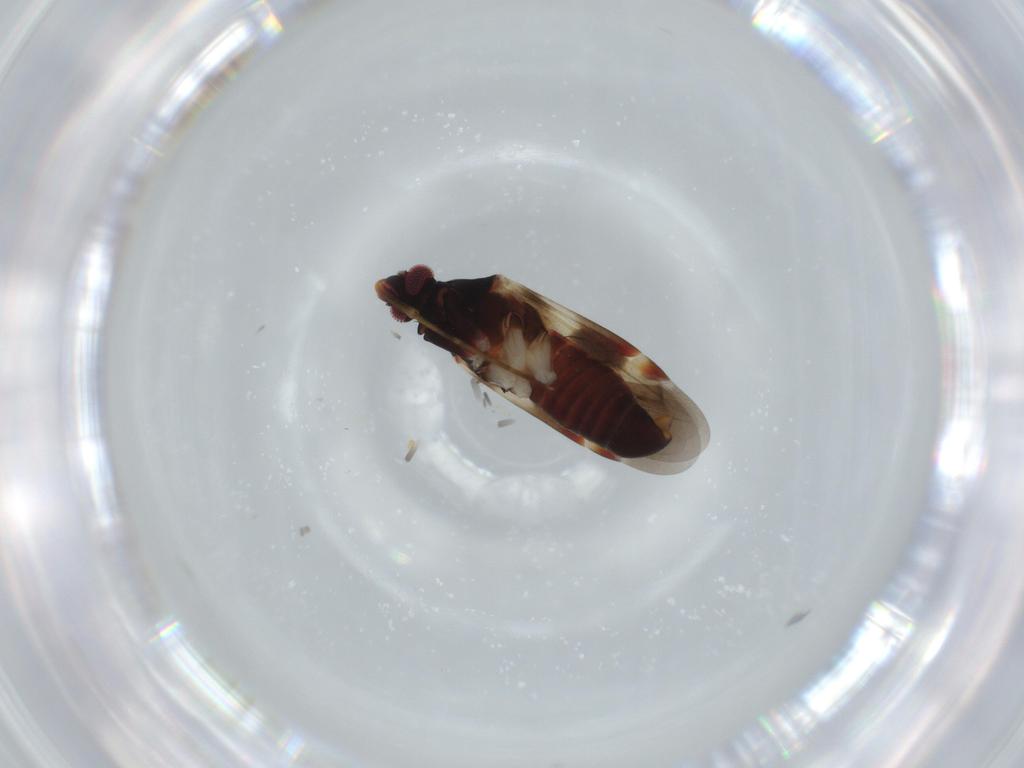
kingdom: Animalia
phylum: Arthropoda
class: Insecta
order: Hemiptera
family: Miridae
